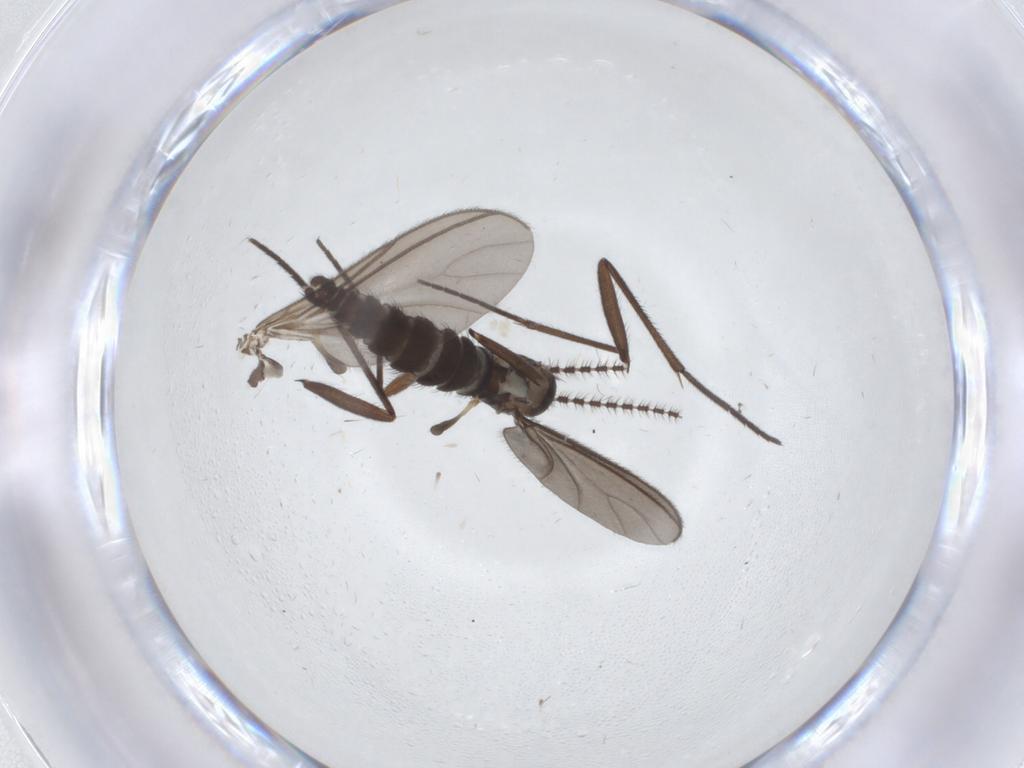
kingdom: Animalia
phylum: Arthropoda
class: Insecta
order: Diptera
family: Sciaridae
